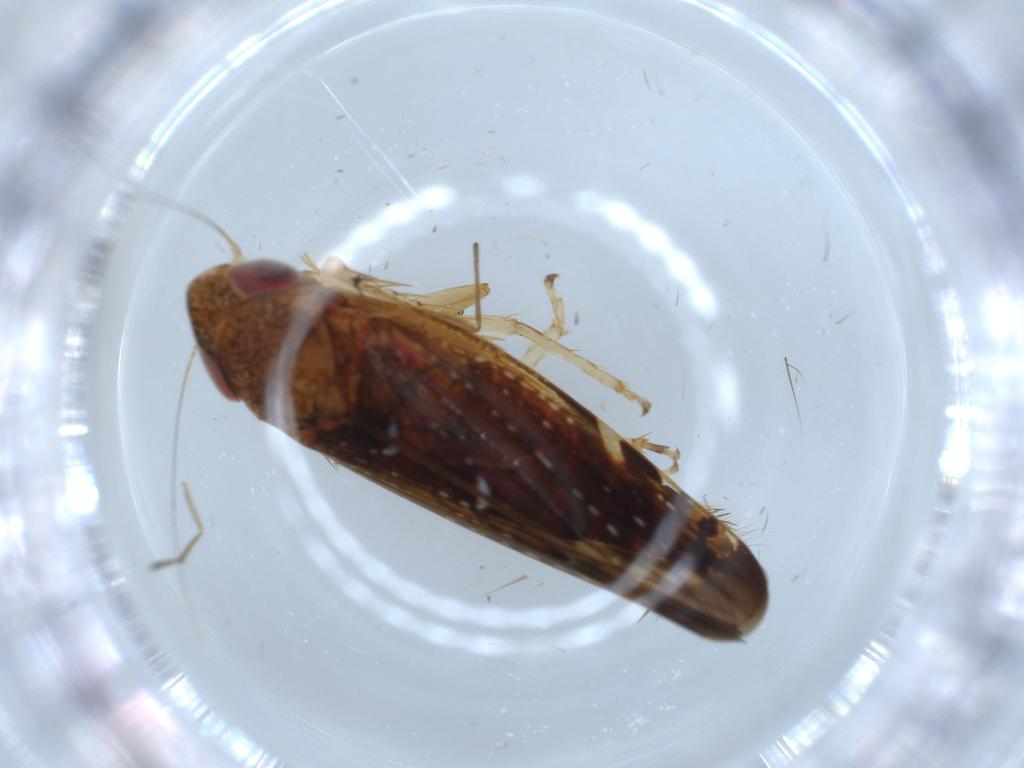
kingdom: Animalia
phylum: Arthropoda
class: Insecta
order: Hemiptera
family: Cicadellidae
